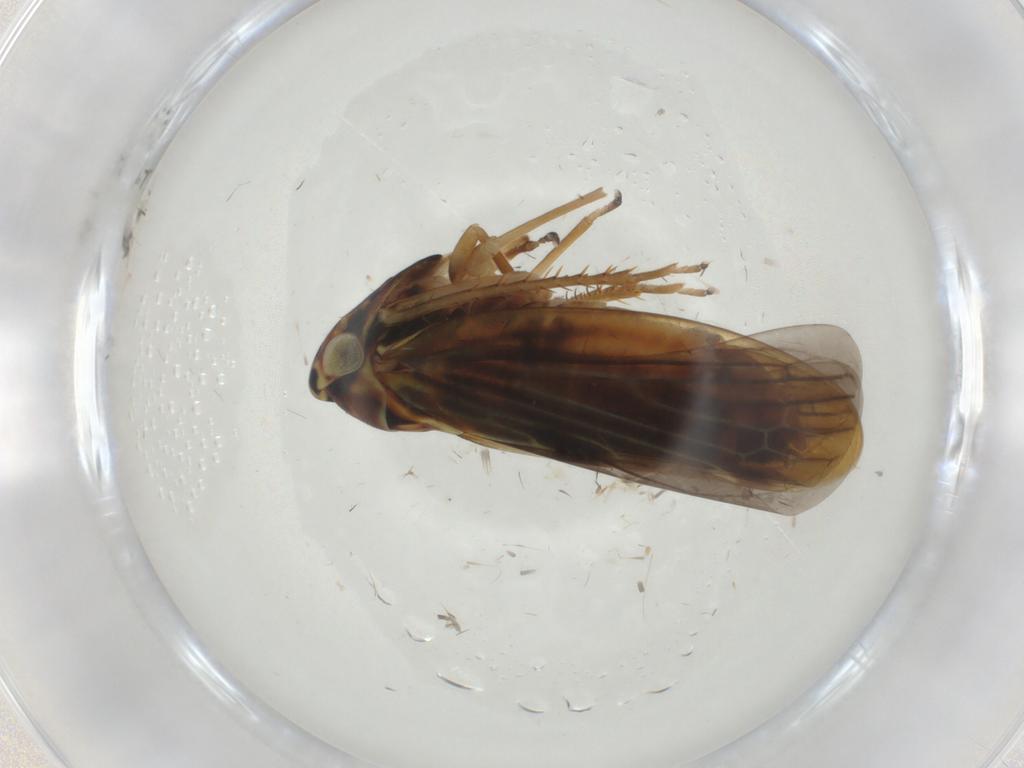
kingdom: Animalia
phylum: Arthropoda
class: Insecta
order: Hemiptera
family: Cicadellidae
